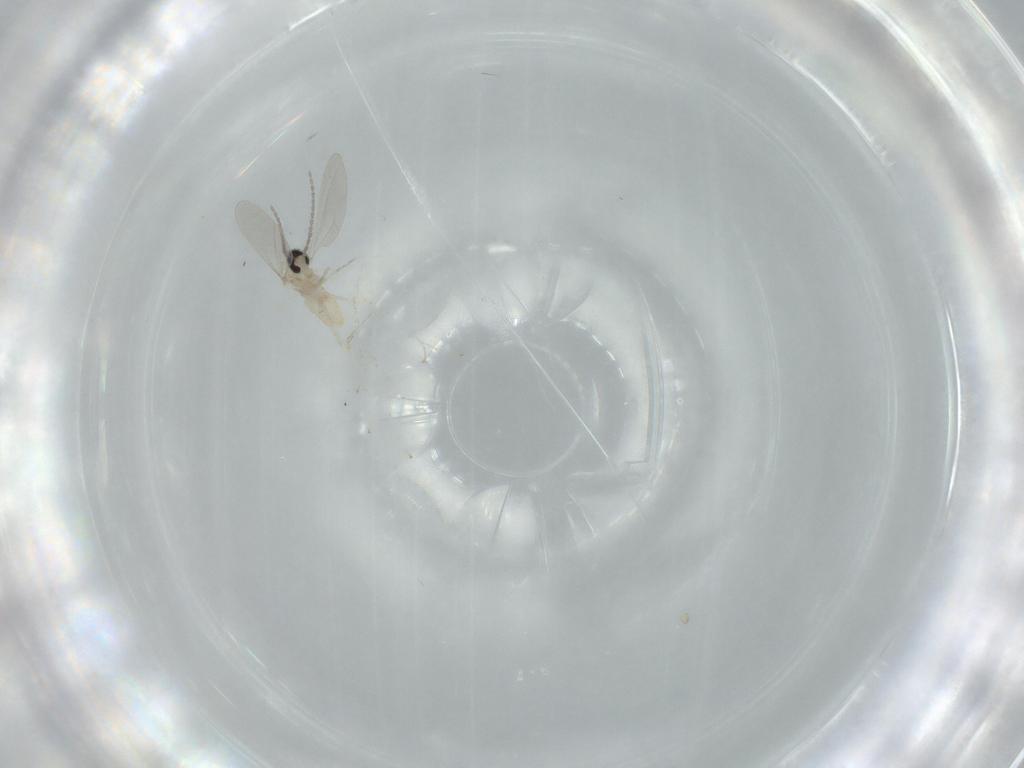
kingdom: Animalia
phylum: Arthropoda
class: Insecta
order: Diptera
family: Cecidomyiidae
